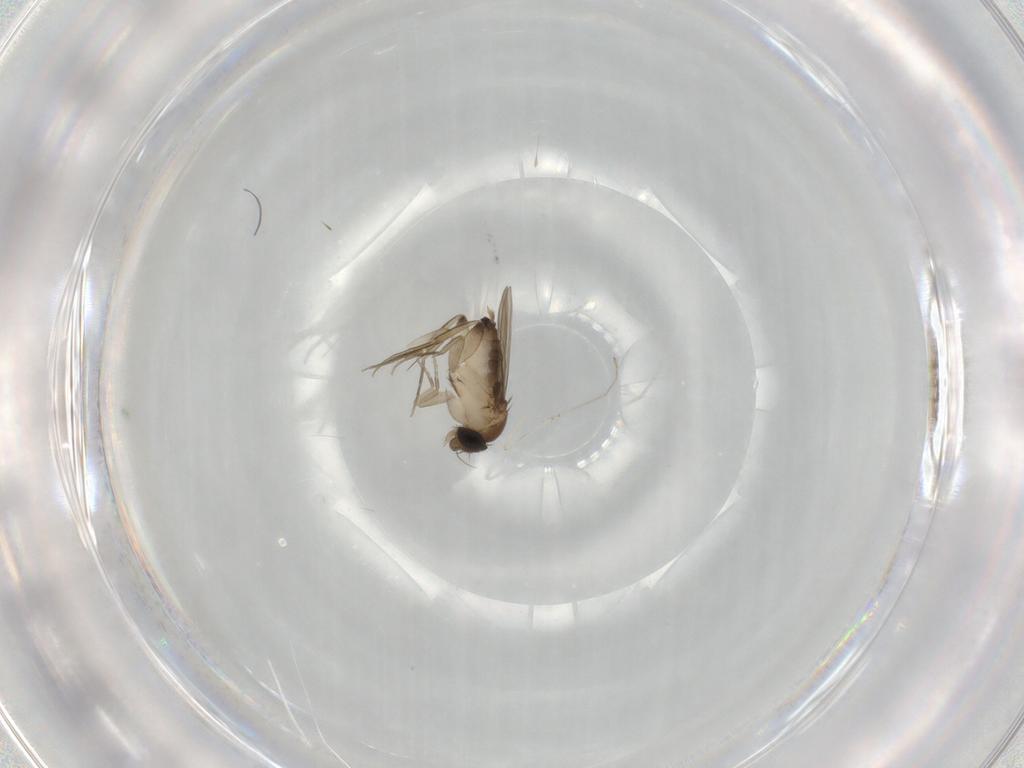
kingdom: Animalia
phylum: Arthropoda
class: Insecta
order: Diptera
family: Phoridae
